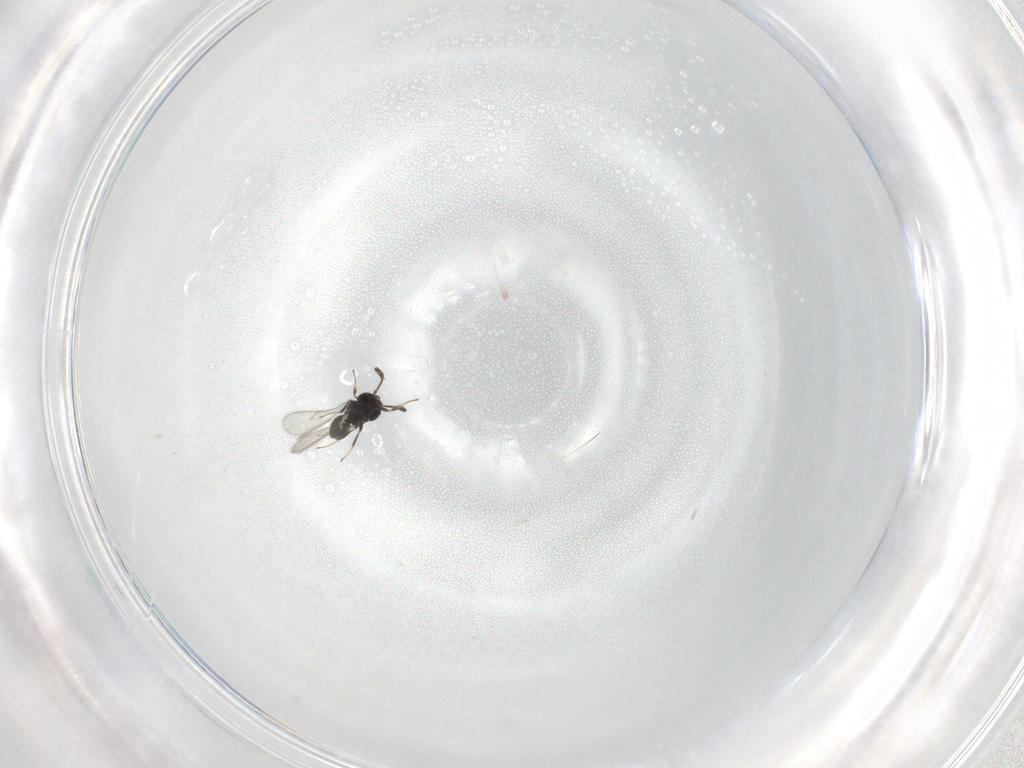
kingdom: Animalia
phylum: Arthropoda
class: Insecta
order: Hymenoptera
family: Scelionidae
